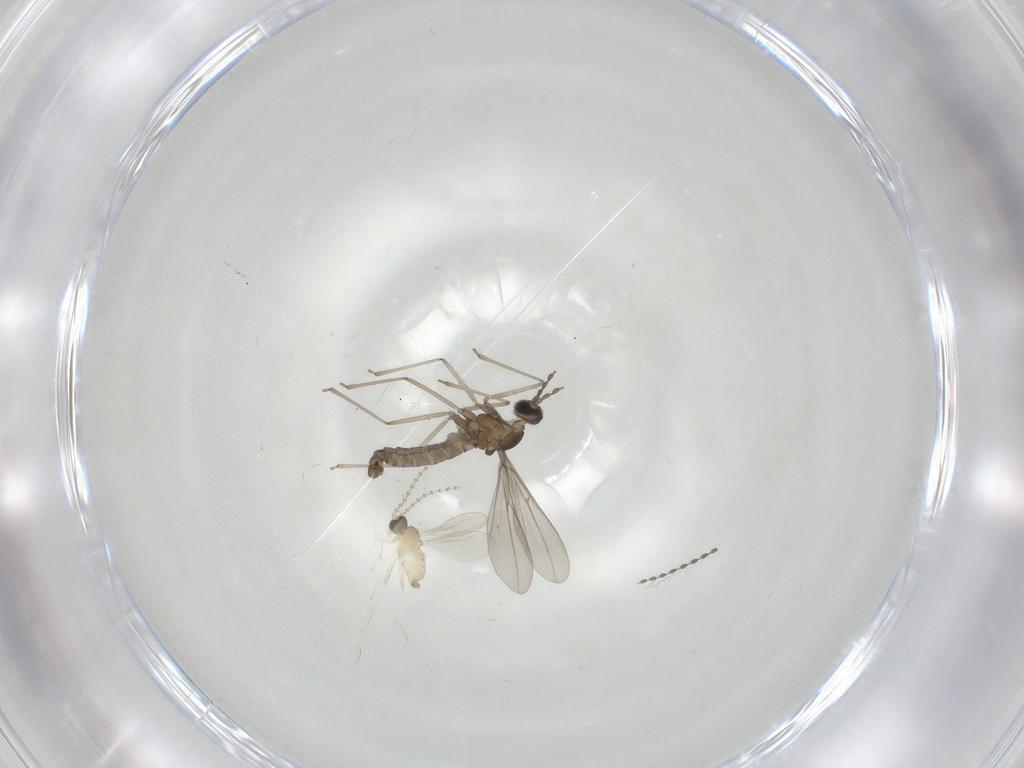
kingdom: Animalia
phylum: Arthropoda
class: Insecta
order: Diptera
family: Cecidomyiidae
